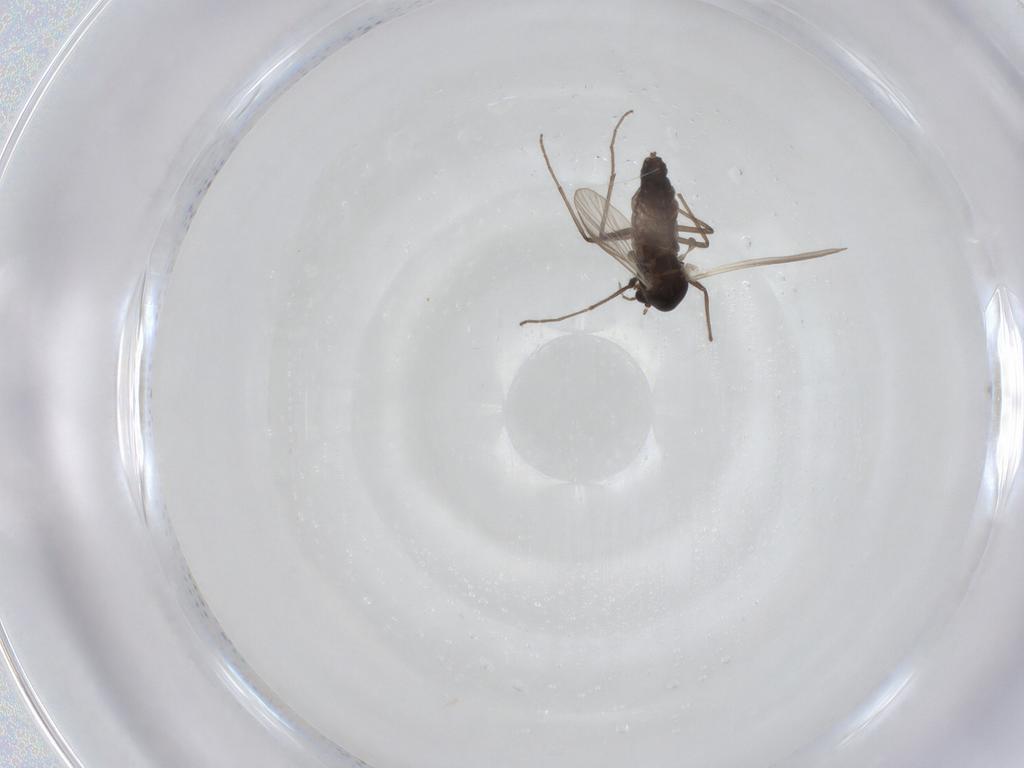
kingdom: Animalia
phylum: Arthropoda
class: Insecta
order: Diptera
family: Chironomidae
